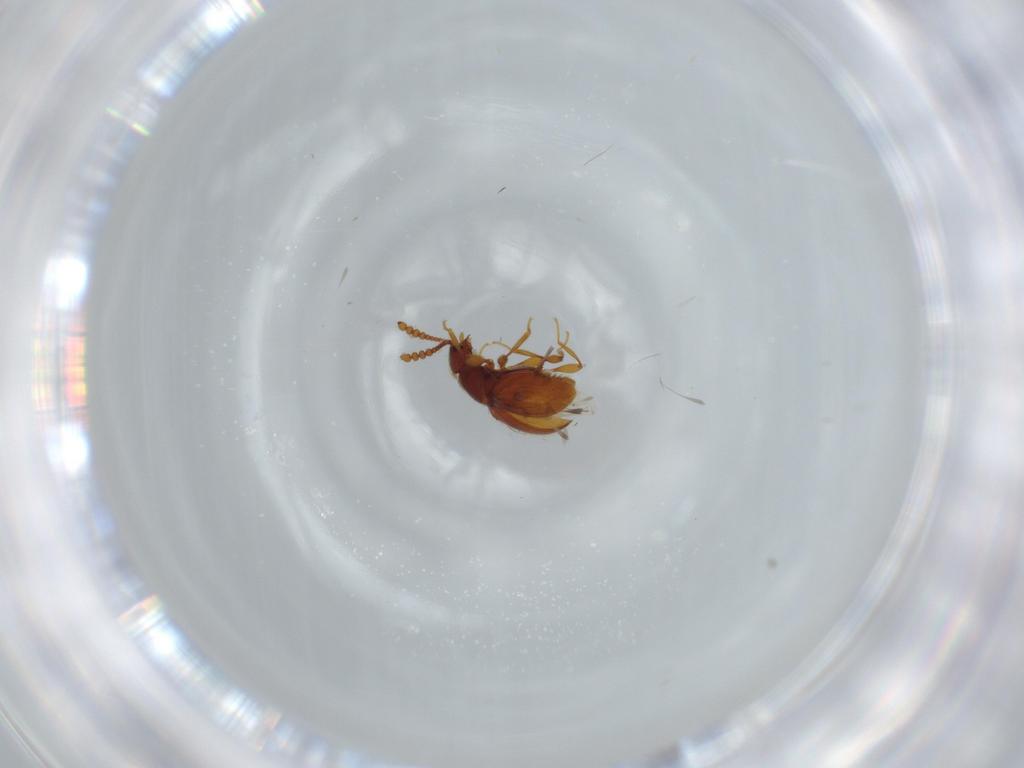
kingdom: Animalia
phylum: Arthropoda
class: Insecta
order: Coleoptera
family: Staphylinidae
